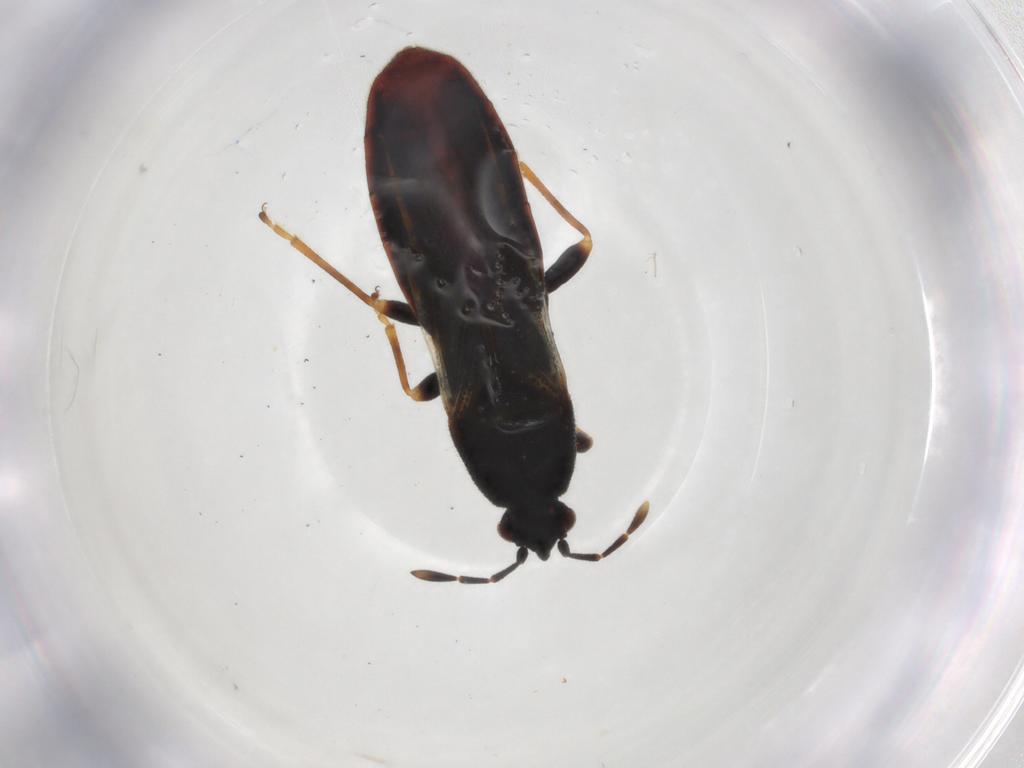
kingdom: Animalia
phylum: Arthropoda
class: Insecta
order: Hemiptera
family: Blissidae
